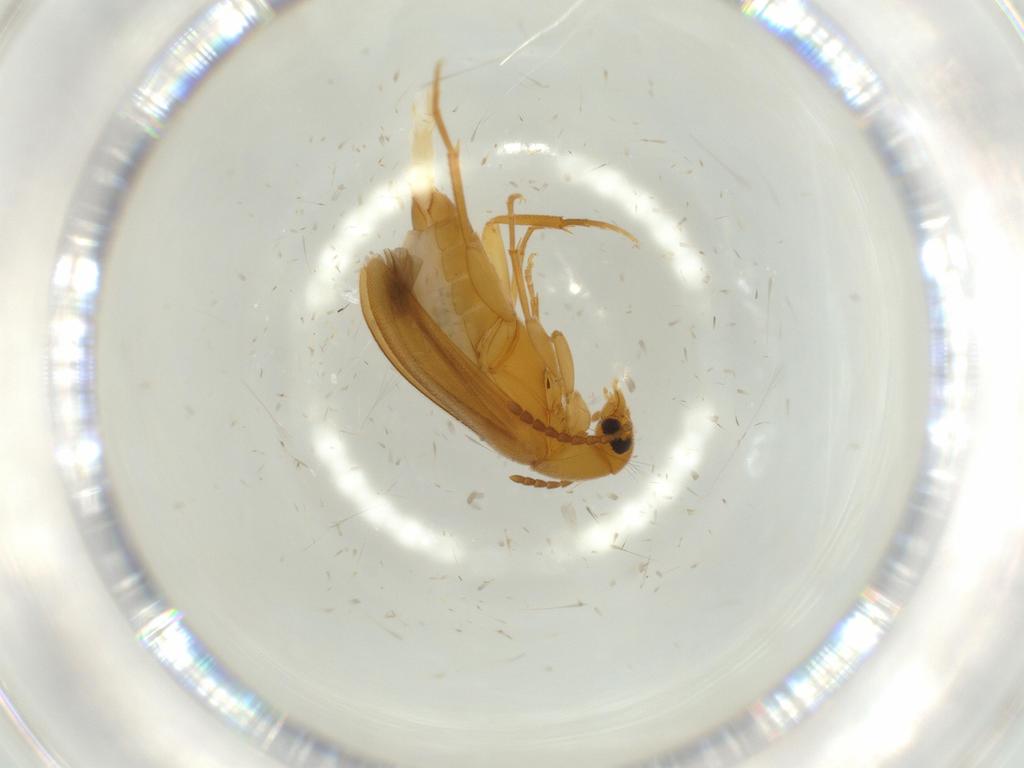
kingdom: Animalia
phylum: Arthropoda
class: Insecta
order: Coleoptera
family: Scraptiidae
